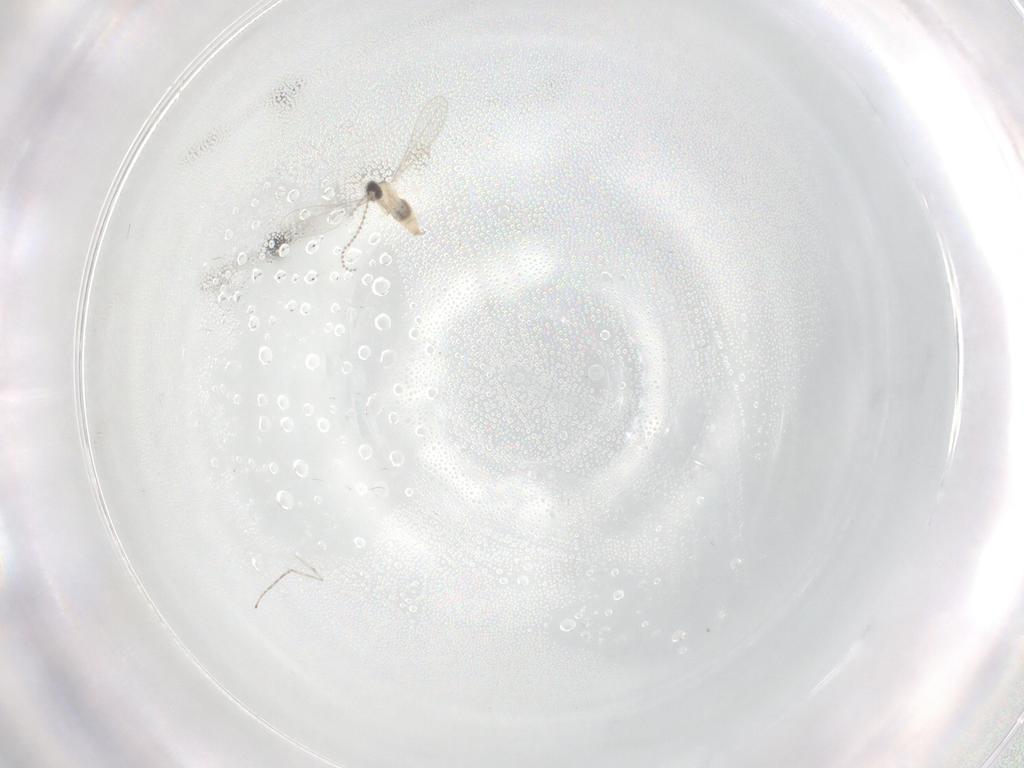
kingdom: Animalia
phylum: Arthropoda
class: Insecta
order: Diptera
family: Cecidomyiidae
